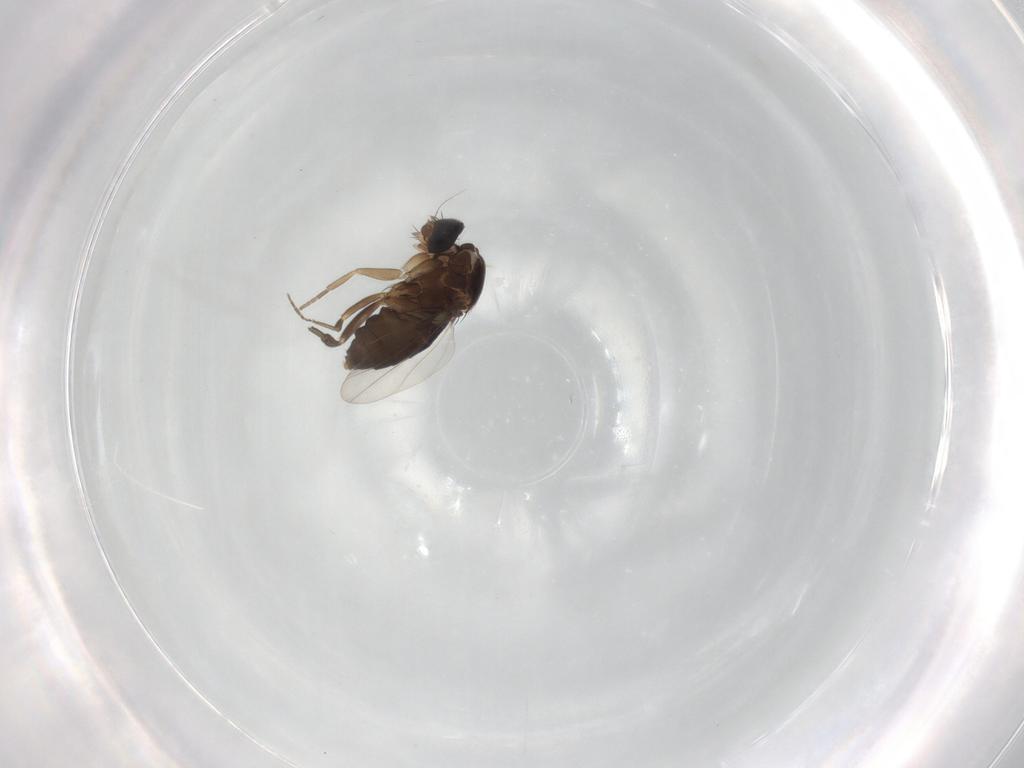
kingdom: Animalia
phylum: Arthropoda
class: Insecta
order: Diptera
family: Phoridae
